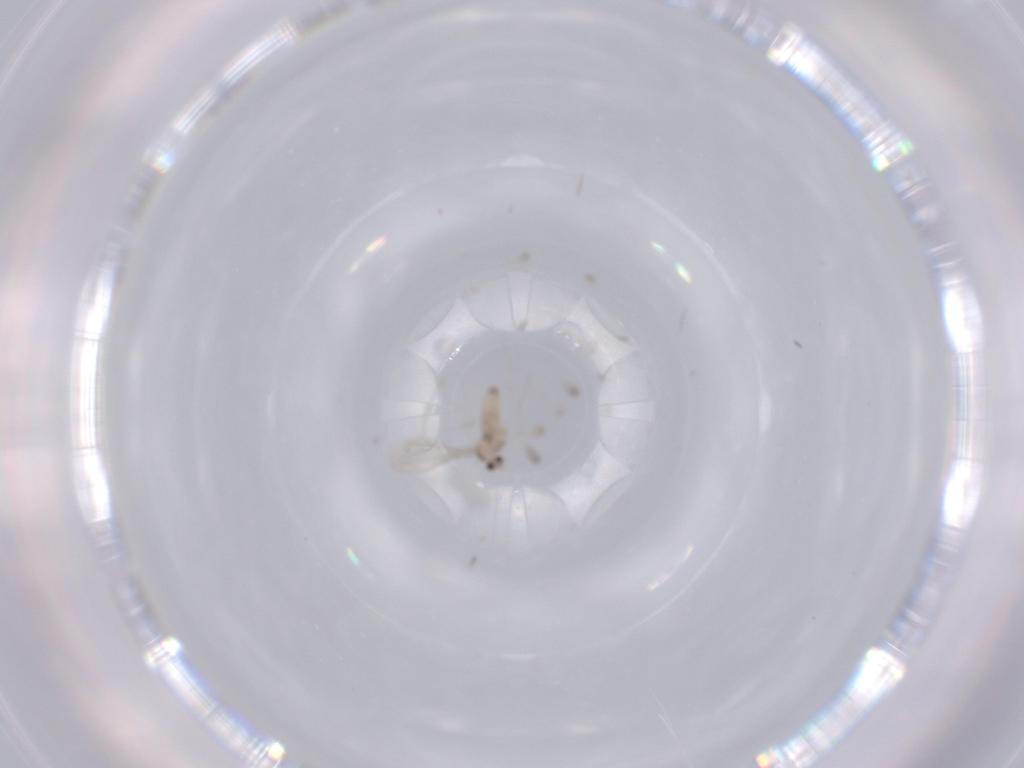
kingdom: Animalia
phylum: Arthropoda
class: Insecta
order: Diptera
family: Cecidomyiidae
